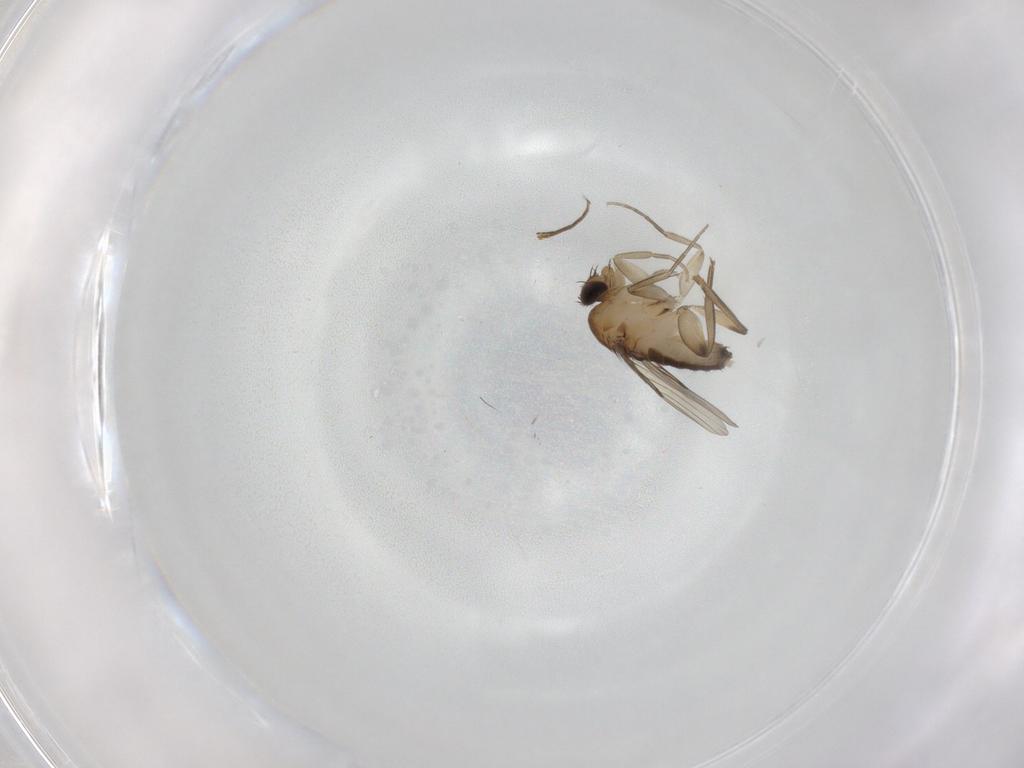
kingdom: Animalia
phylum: Arthropoda
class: Insecta
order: Diptera
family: Phoridae
